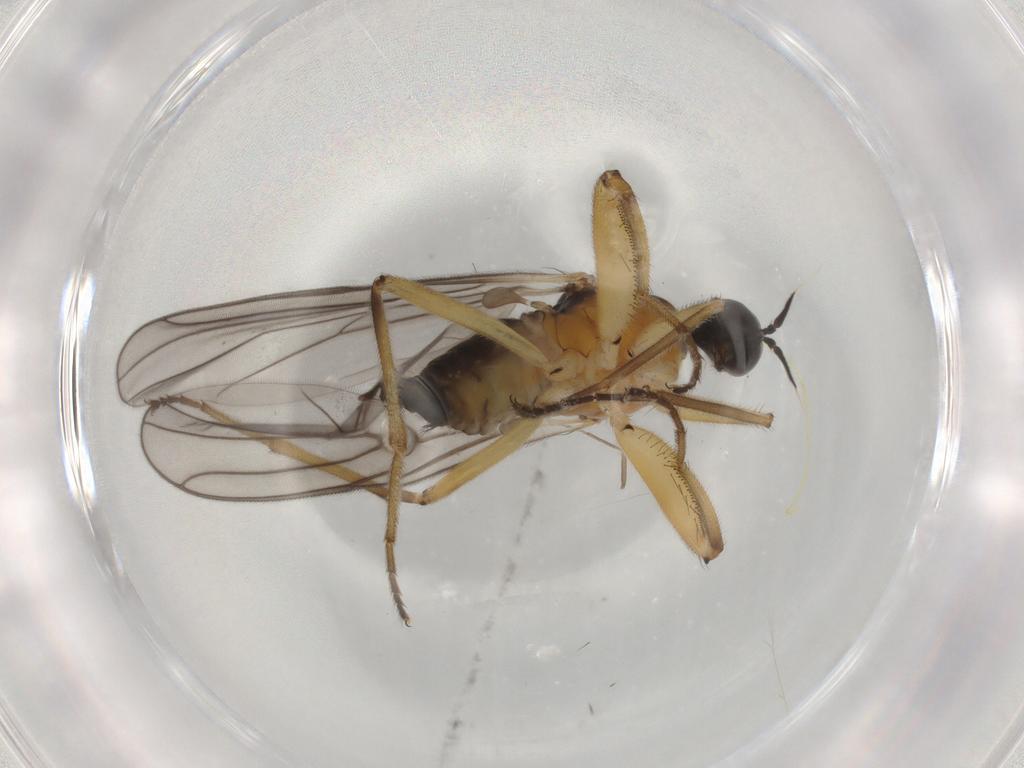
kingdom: Animalia
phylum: Arthropoda
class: Insecta
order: Diptera
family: Hybotidae
